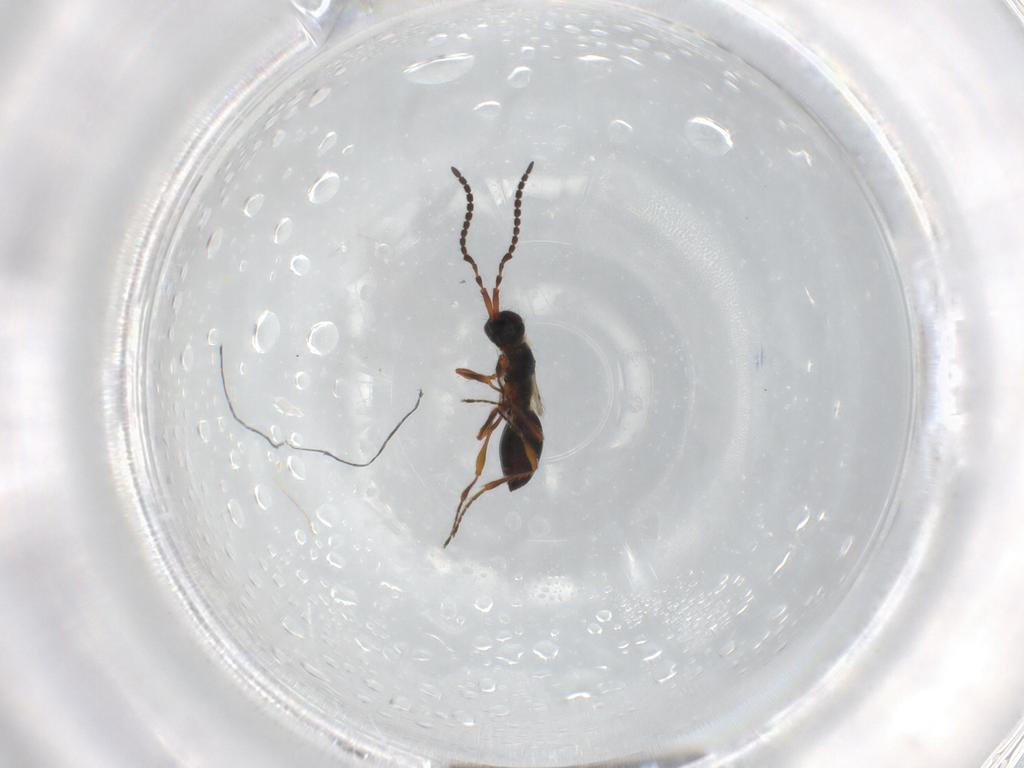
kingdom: Animalia
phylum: Arthropoda
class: Insecta
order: Hymenoptera
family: Diapriidae
